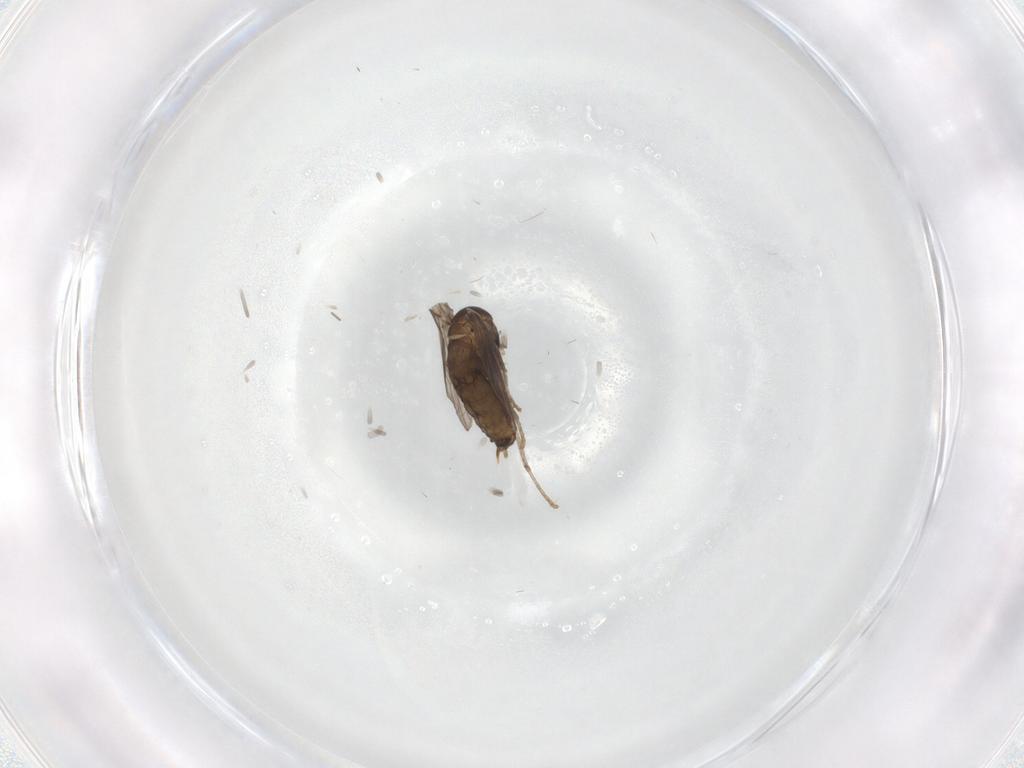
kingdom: Animalia
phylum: Arthropoda
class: Insecta
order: Diptera
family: Psychodidae
